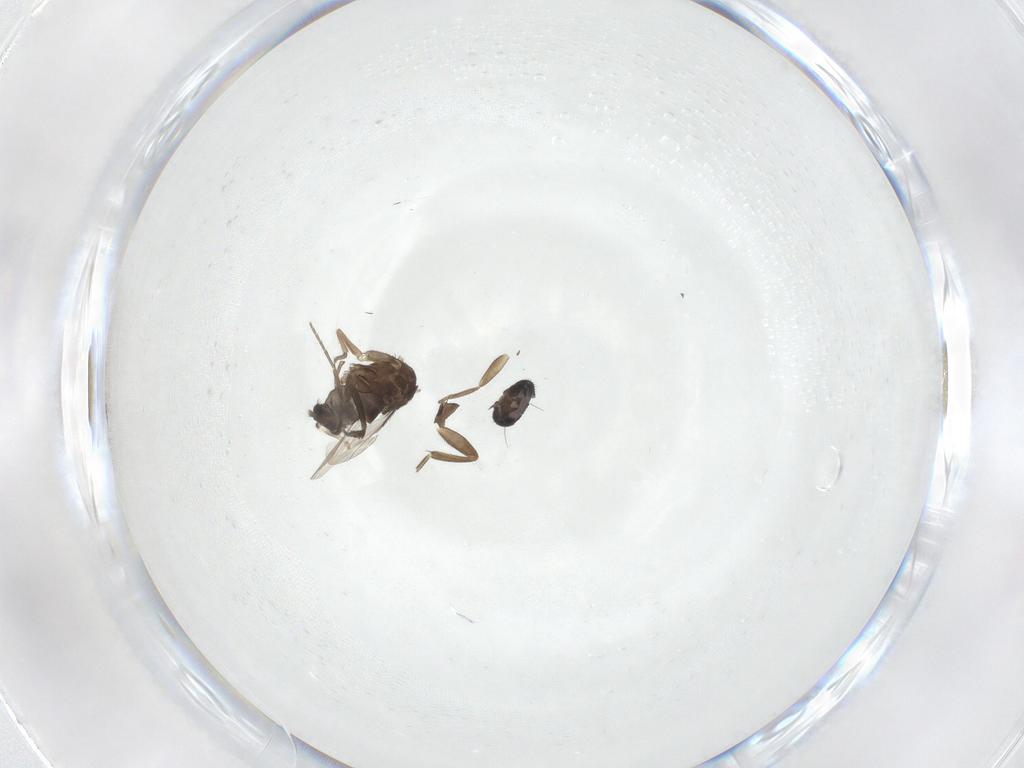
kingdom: Animalia
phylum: Arthropoda
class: Insecta
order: Diptera
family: Phoridae
